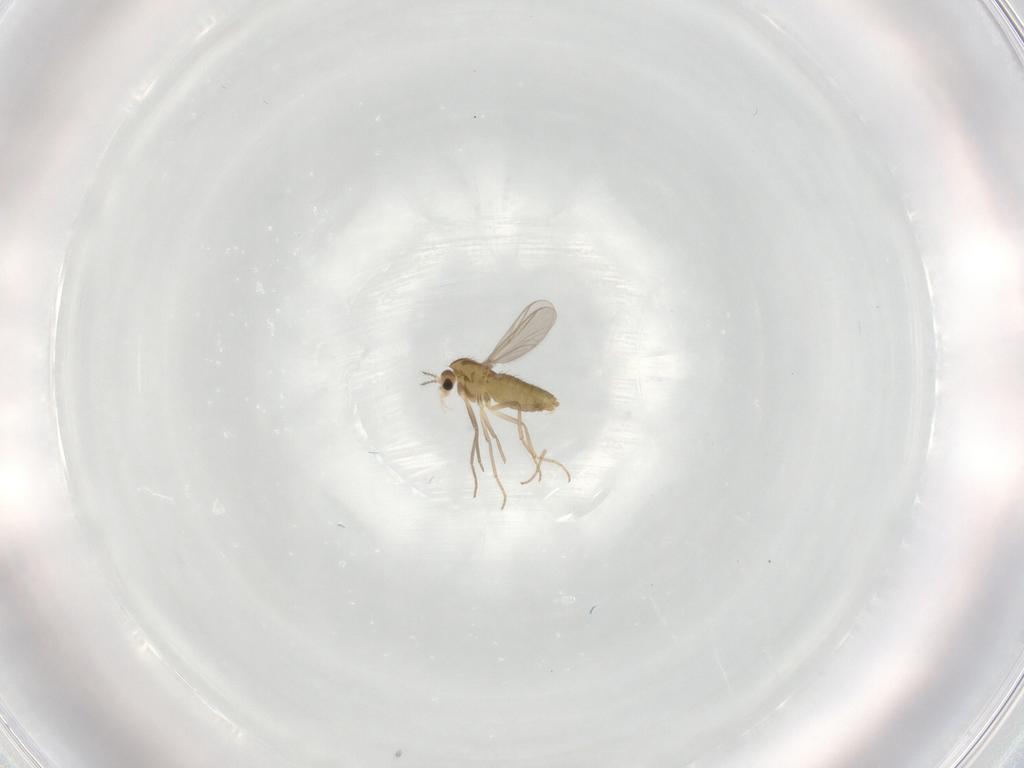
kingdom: Animalia
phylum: Arthropoda
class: Insecta
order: Diptera
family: Chironomidae
